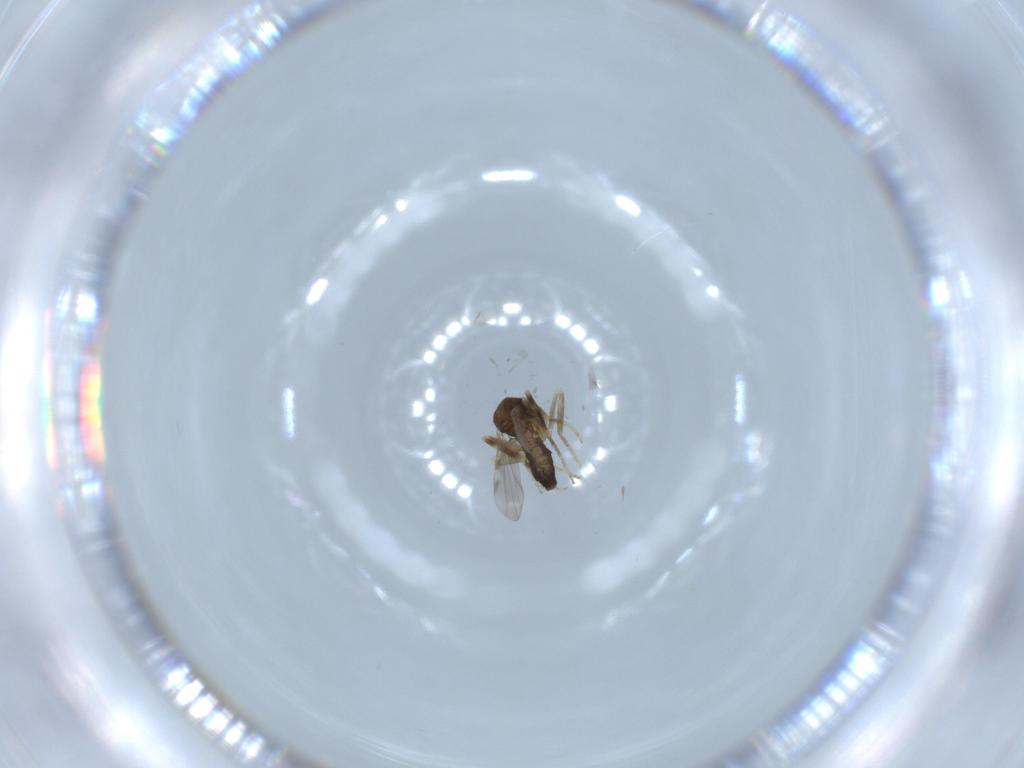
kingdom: Animalia
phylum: Arthropoda
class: Insecta
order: Diptera
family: Ceratopogonidae
